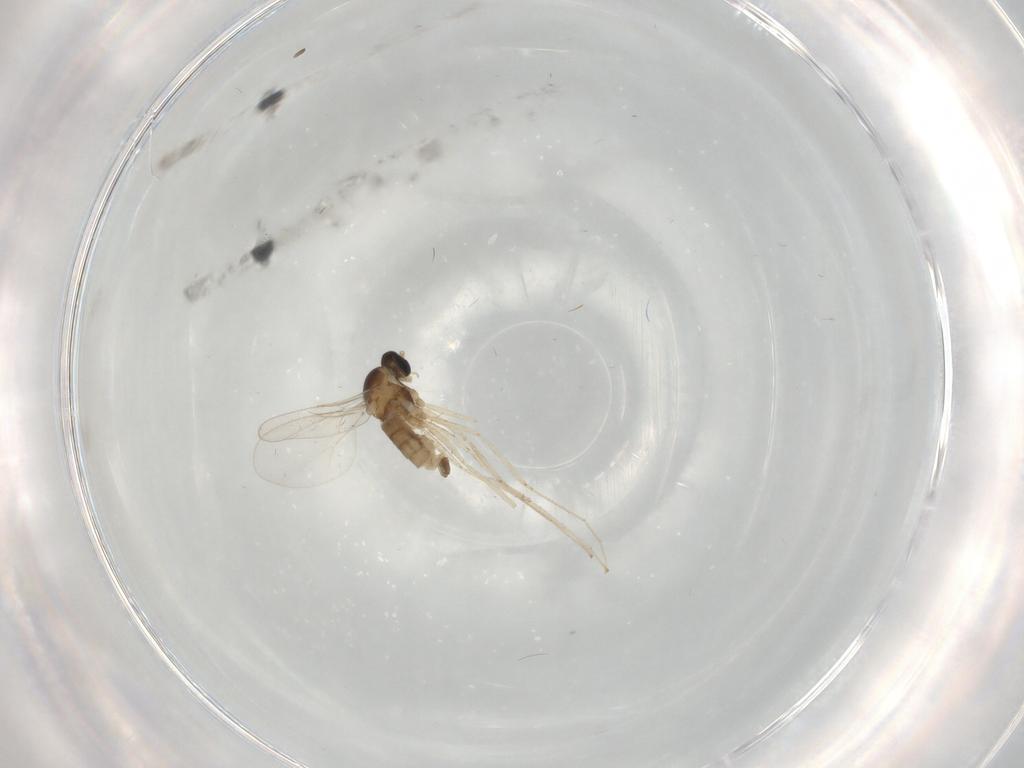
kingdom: Animalia
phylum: Arthropoda
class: Insecta
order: Diptera
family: Cecidomyiidae
